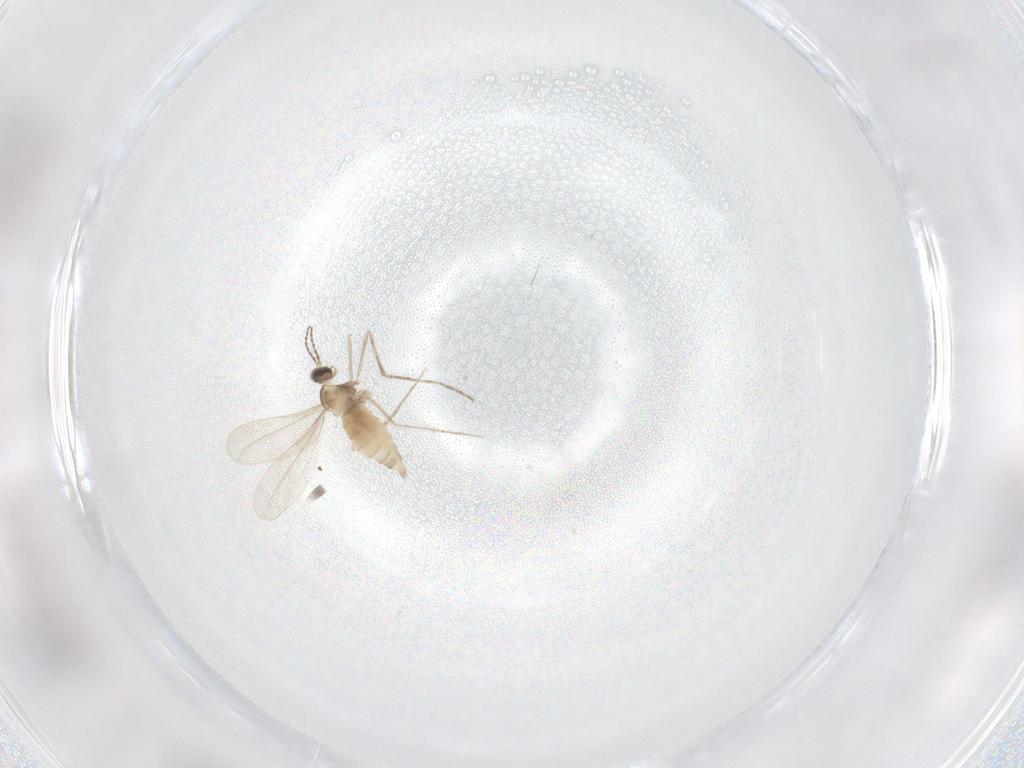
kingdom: Animalia
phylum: Arthropoda
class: Insecta
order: Diptera
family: Cecidomyiidae
